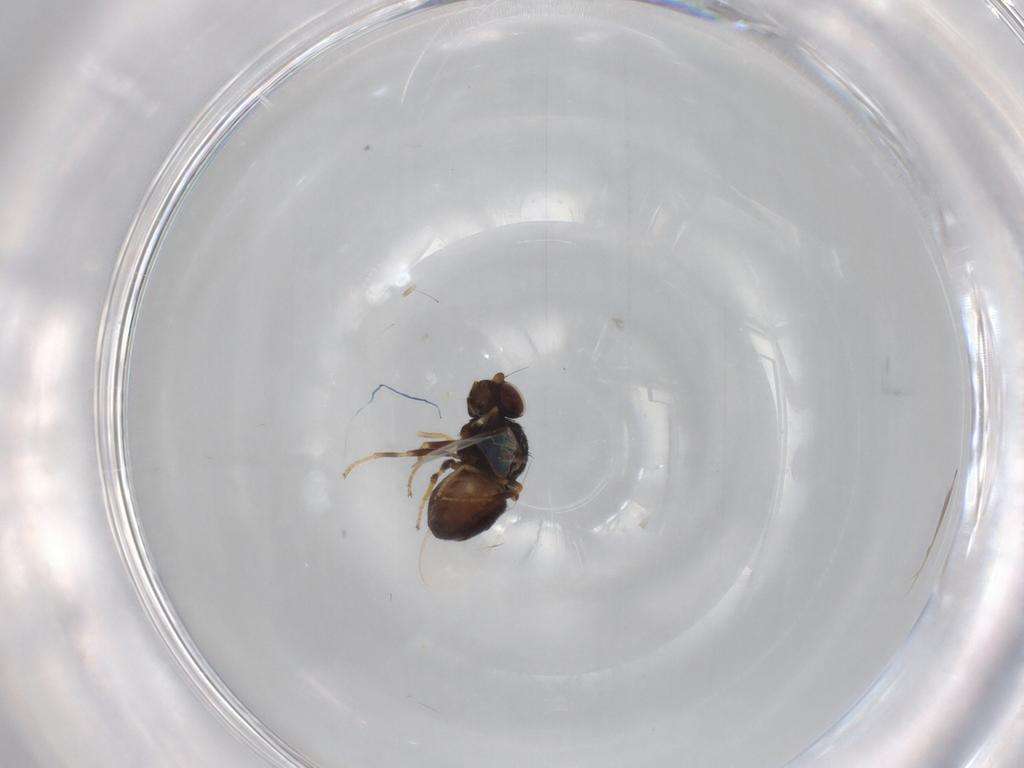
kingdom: Animalia
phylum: Arthropoda
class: Insecta
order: Diptera
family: Chloropidae
